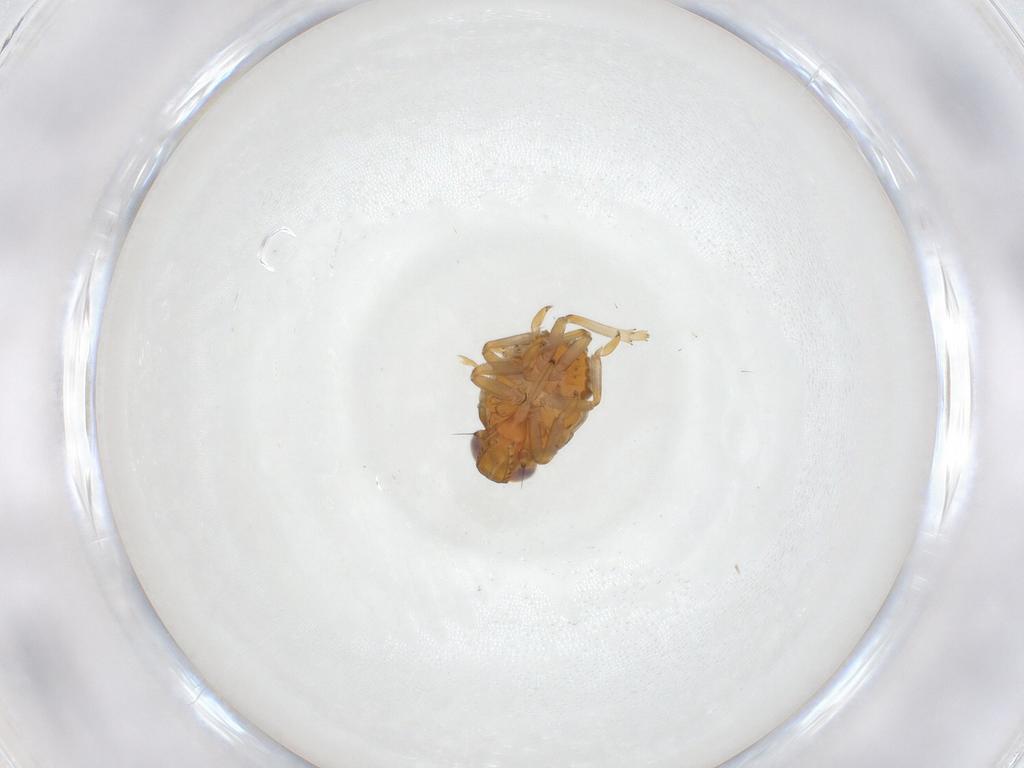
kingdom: Animalia
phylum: Arthropoda
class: Insecta
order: Hemiptera
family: Issidae
